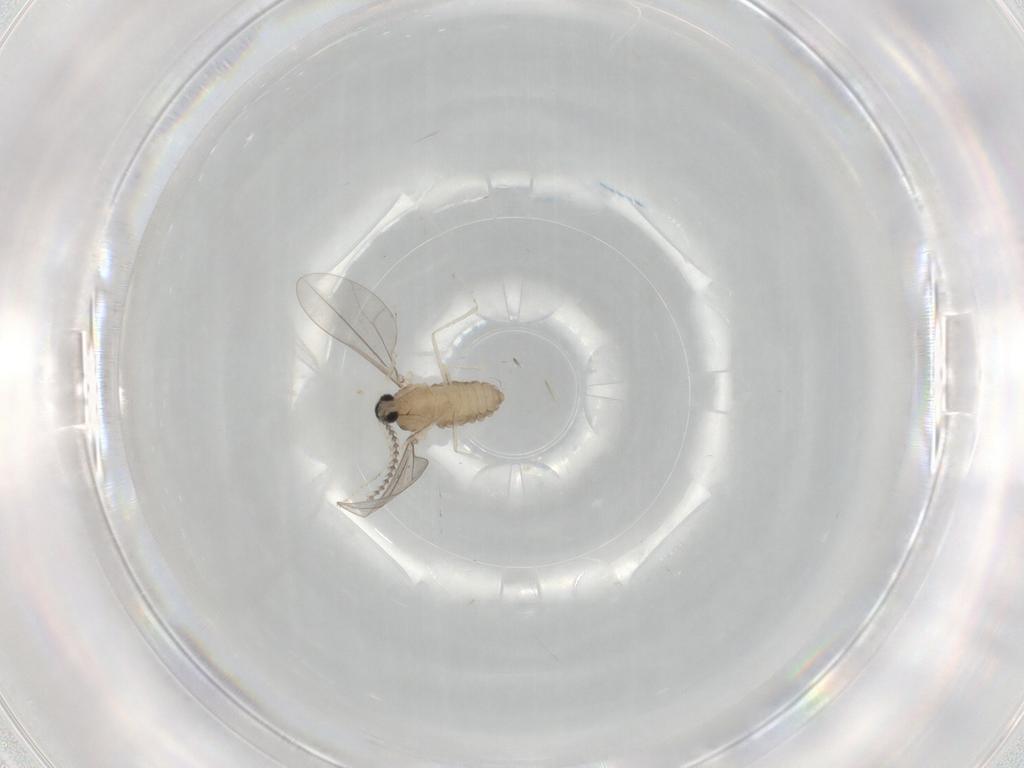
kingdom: Animalia
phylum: Arthropoda
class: Insecta
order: Diptera
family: Cecidomyiidae
